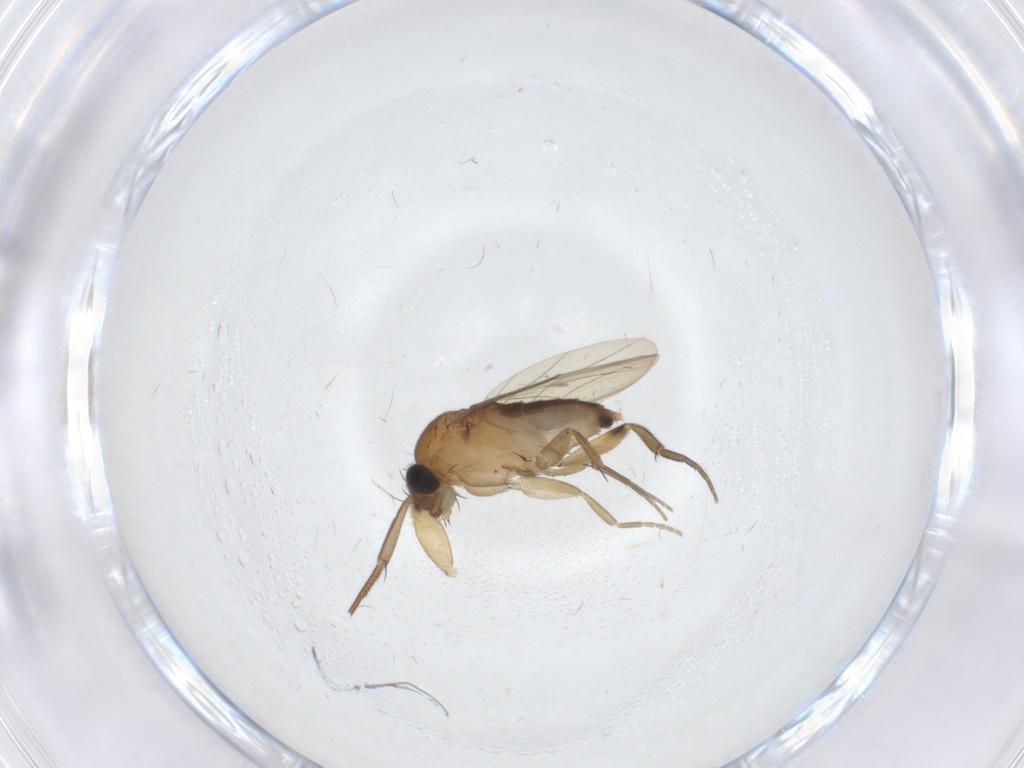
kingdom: Animalia
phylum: Arthropoda
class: Insecta
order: Diptera
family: Phoridae
